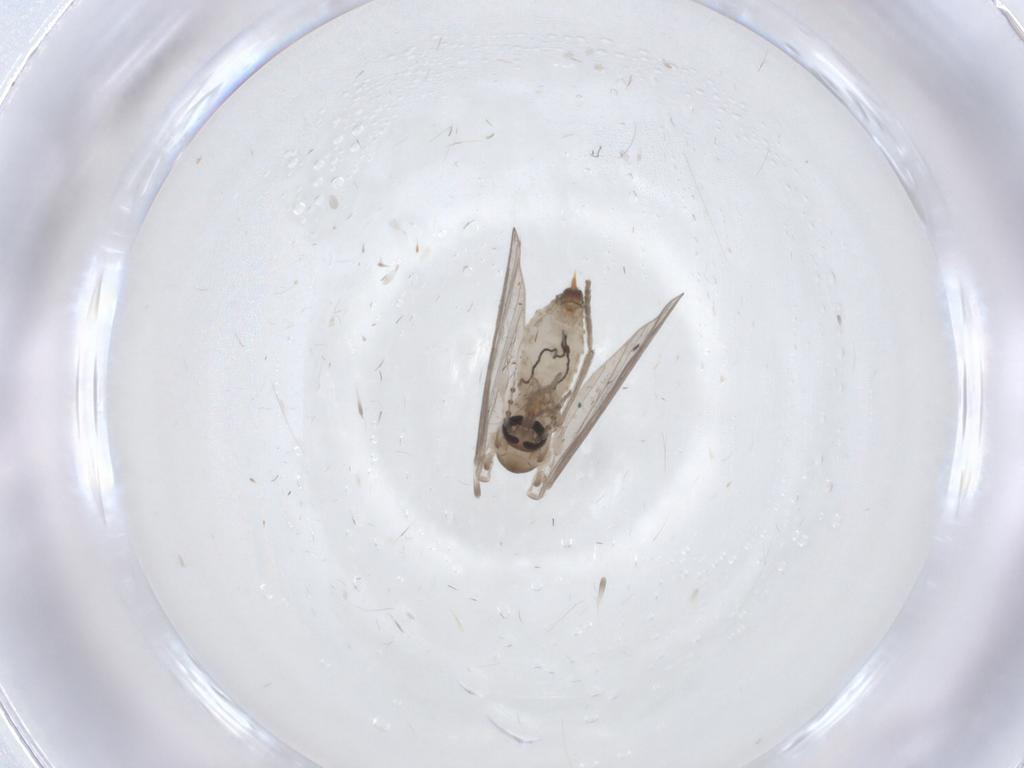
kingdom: Animalia
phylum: Arthropoda
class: Insecta
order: Diptera
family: Psychodidae
